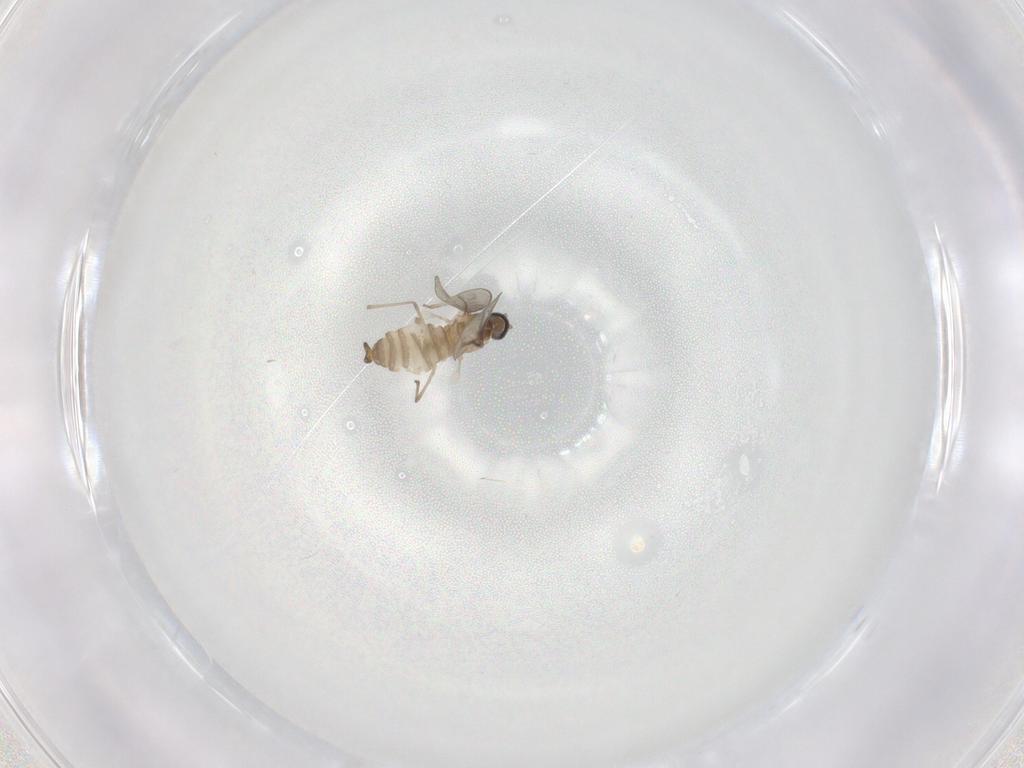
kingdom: Animalia
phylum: Arthropoda
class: Insecta
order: Diptera
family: Cecidomyiidae
